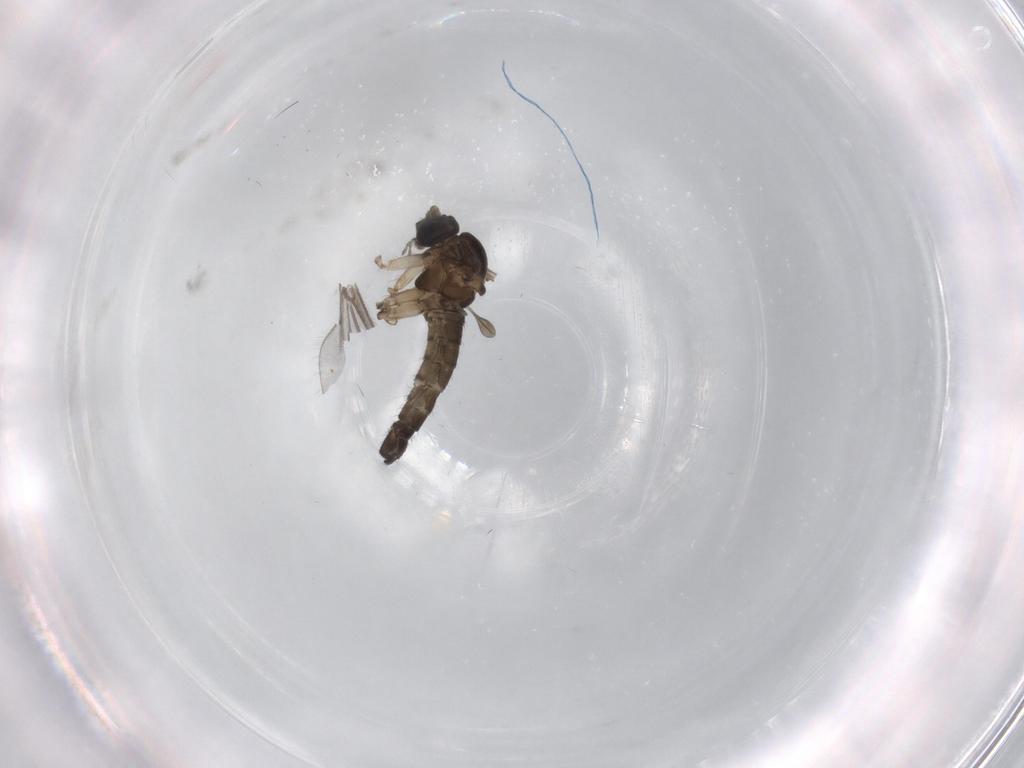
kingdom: Animalia
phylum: Arthropoda
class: Insecta
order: Diptera
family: Sciaridae
